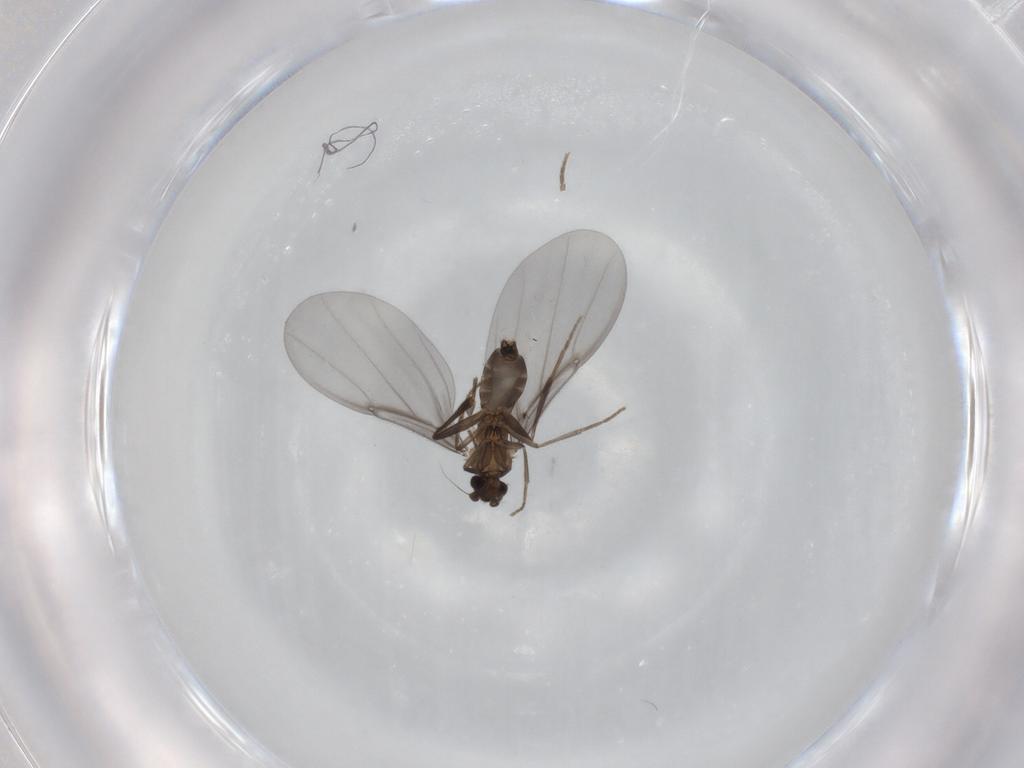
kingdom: Animalia
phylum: Arthropoda
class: Insecta
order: Diptera
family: Phoridae
